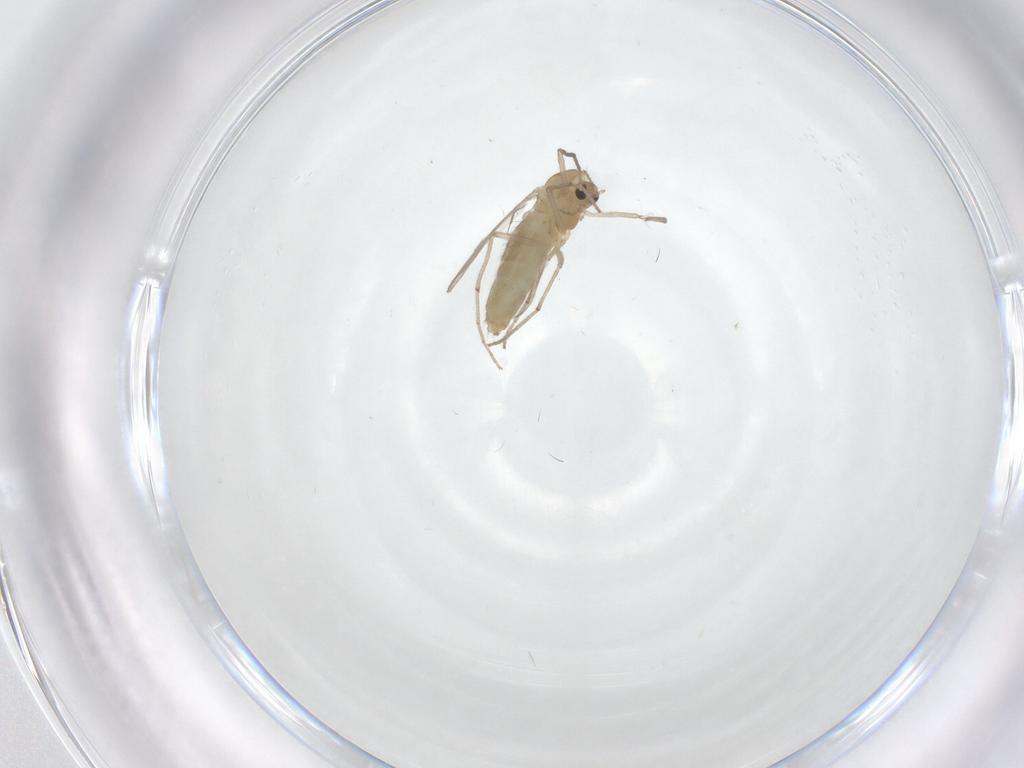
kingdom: Animalia
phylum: Arthropoda
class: Insecta
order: Diptera
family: Chironomidae
